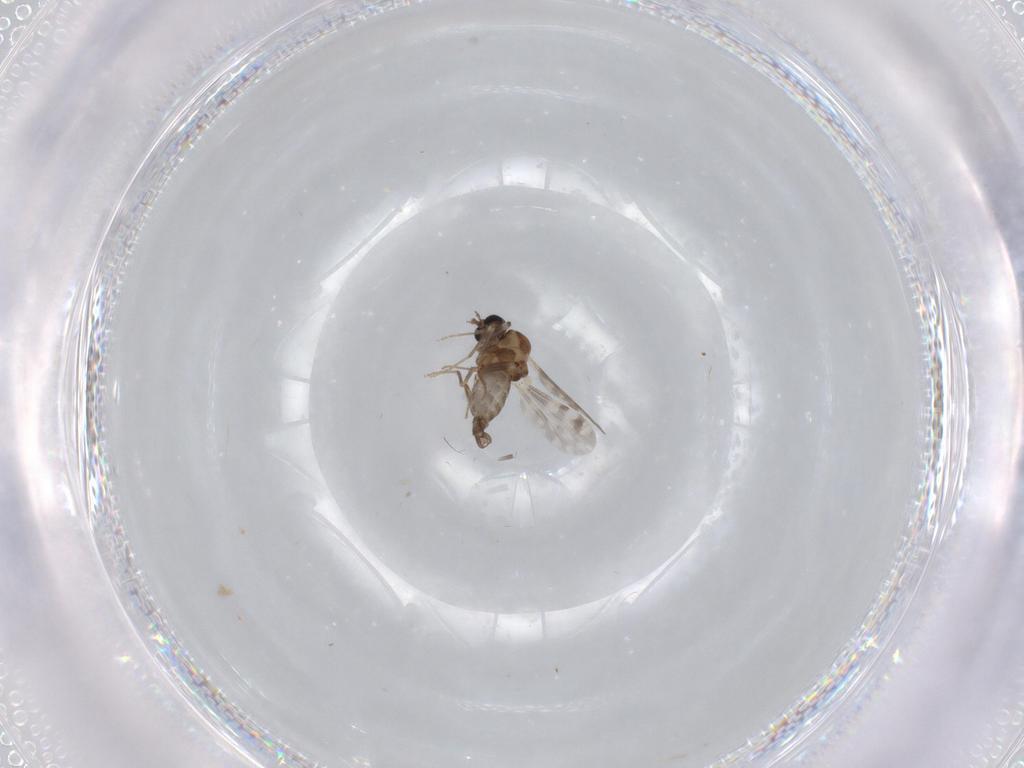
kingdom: Animalia
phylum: Arthropoda
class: Insecta
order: Diptera
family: Ceratopogonidae
